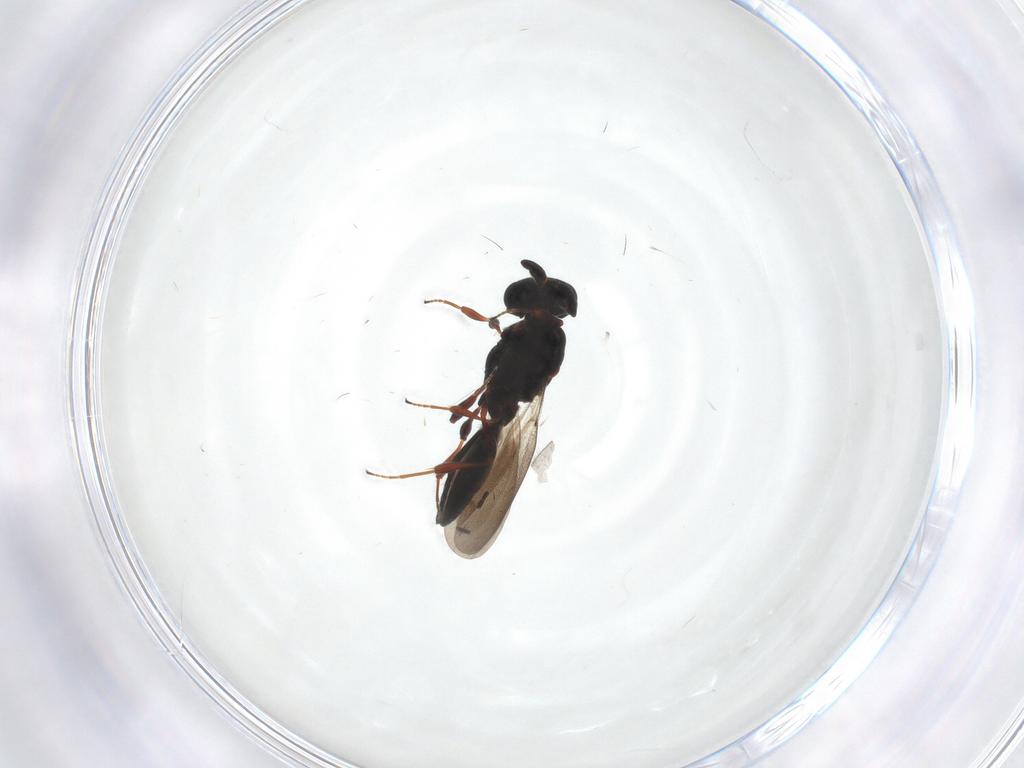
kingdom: Animalia
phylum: Arthropoda
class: Insecta
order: Hymenoptera
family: Platygastridae
